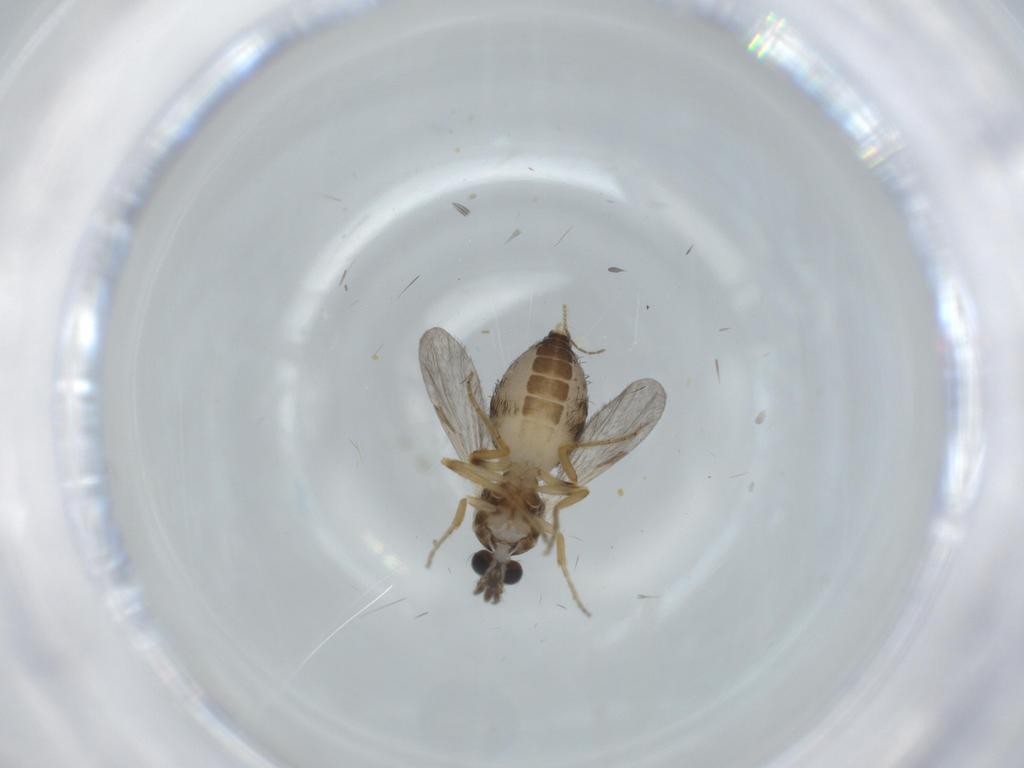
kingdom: Animalia
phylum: Arthropoda
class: Insecta
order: Diptera
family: Ceratopogonidae
